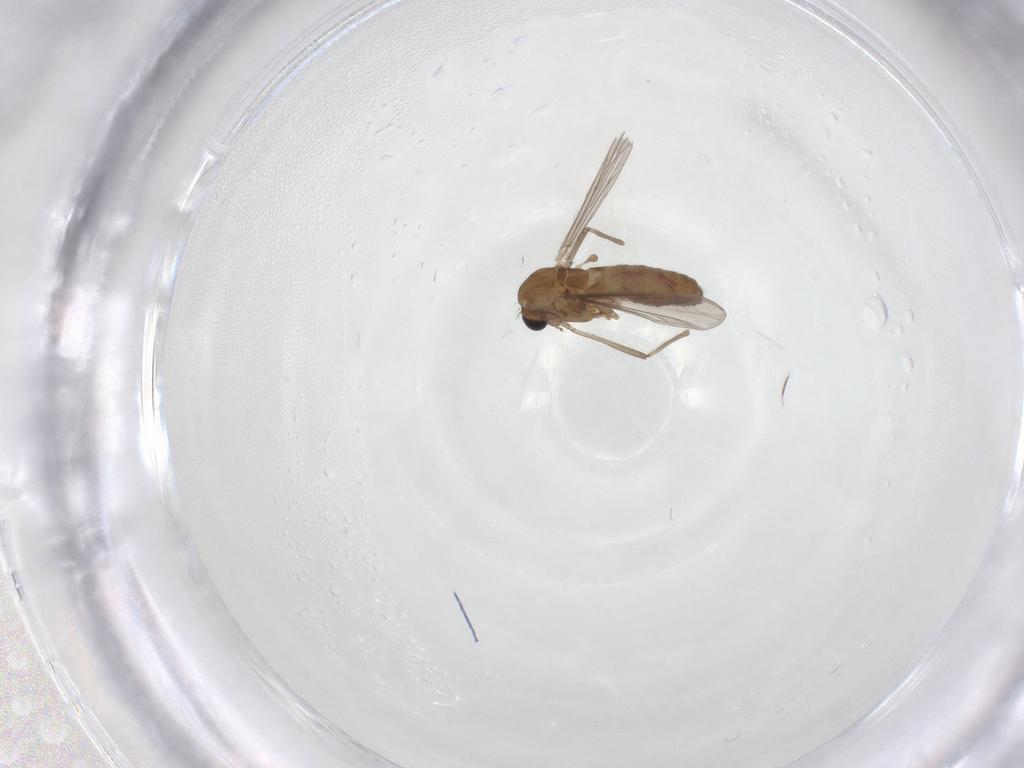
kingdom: Animalia
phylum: Arthropoda
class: Insecta
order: Diptera
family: Chironomidae
